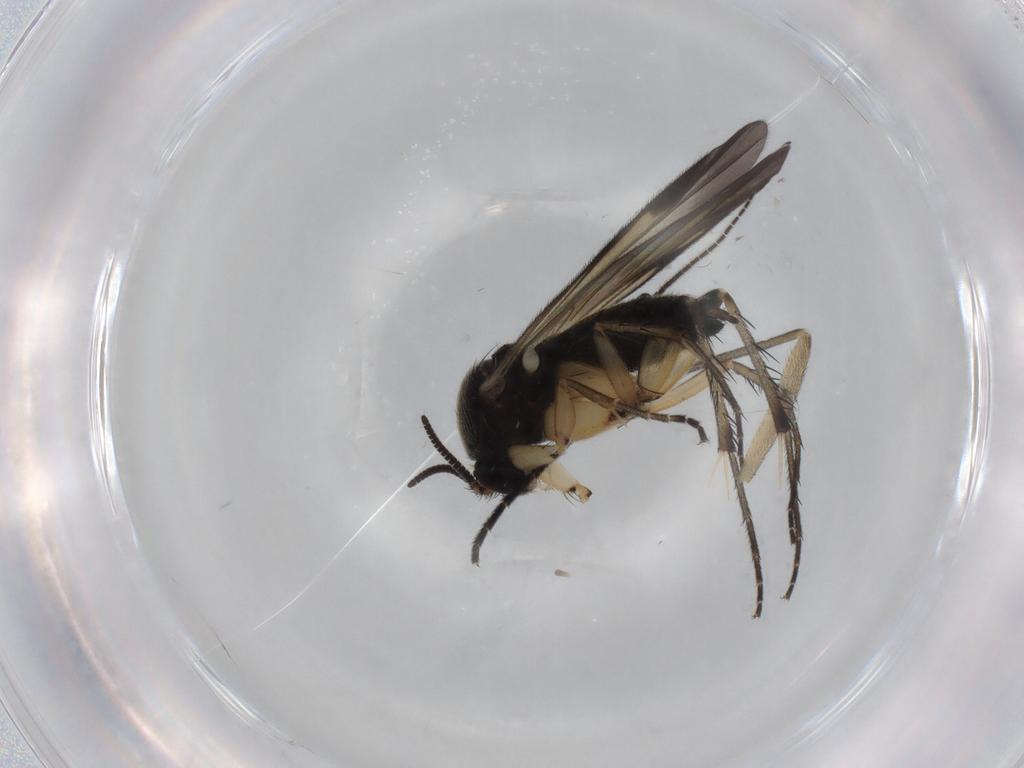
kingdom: Animalia
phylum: Arthropoda
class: Insecta
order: Diptera
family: Mycetophilidae
